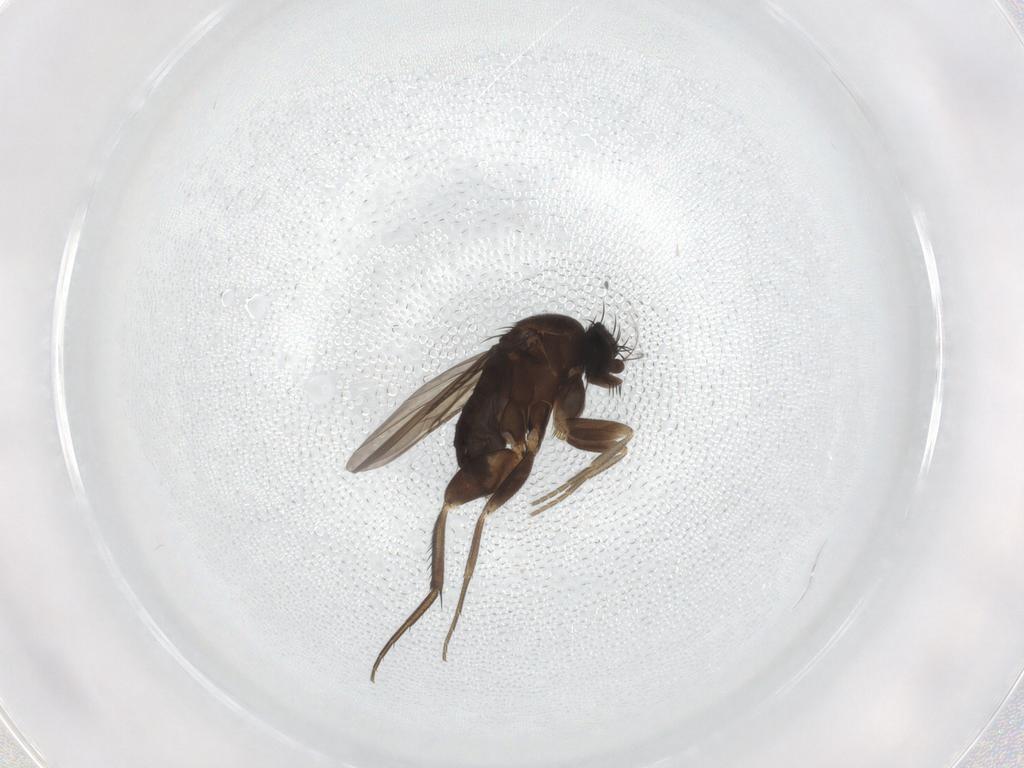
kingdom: Animalia
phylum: Arthropoda
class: Insecta
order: Diptera
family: Phoridae
